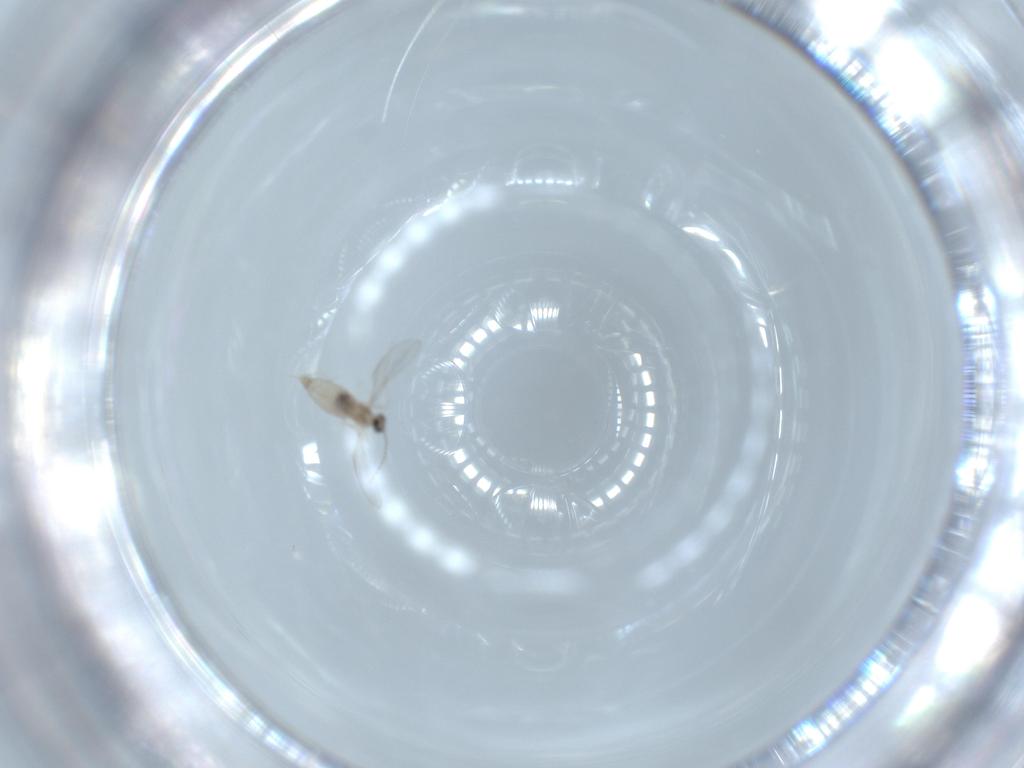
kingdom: Animalia
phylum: Arthropoda
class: Insecta
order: Diptera
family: Cecidomyiidae
